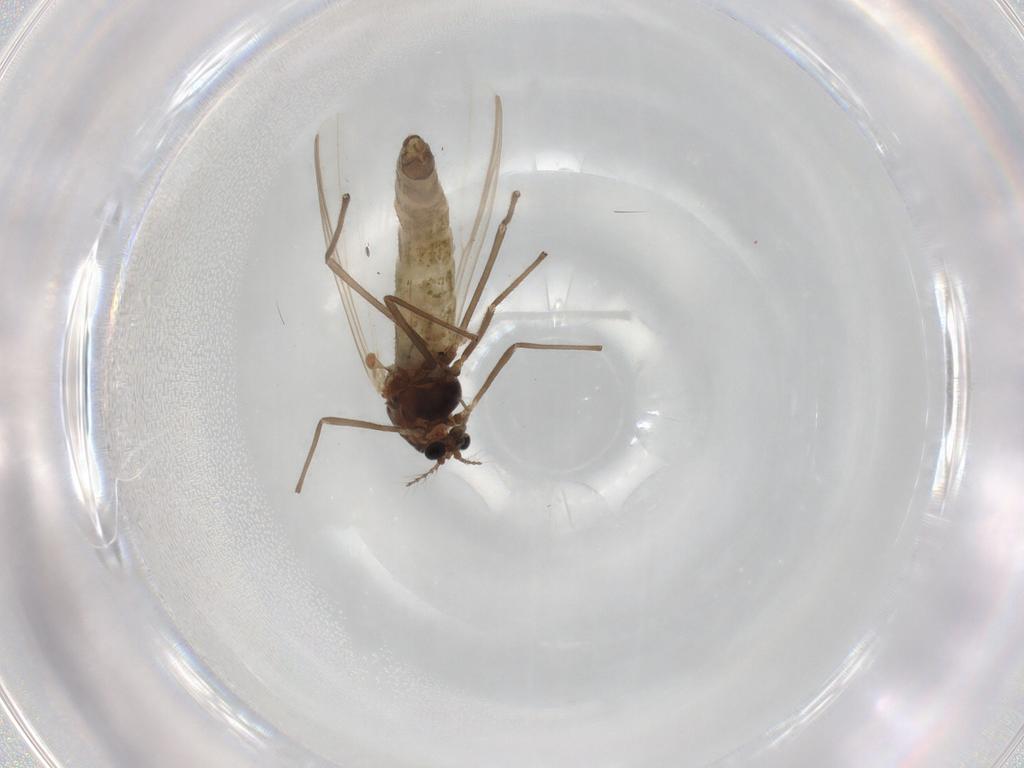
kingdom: Animalia
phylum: Arthropoda
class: Insecta
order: Diptera
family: Chironomidae
